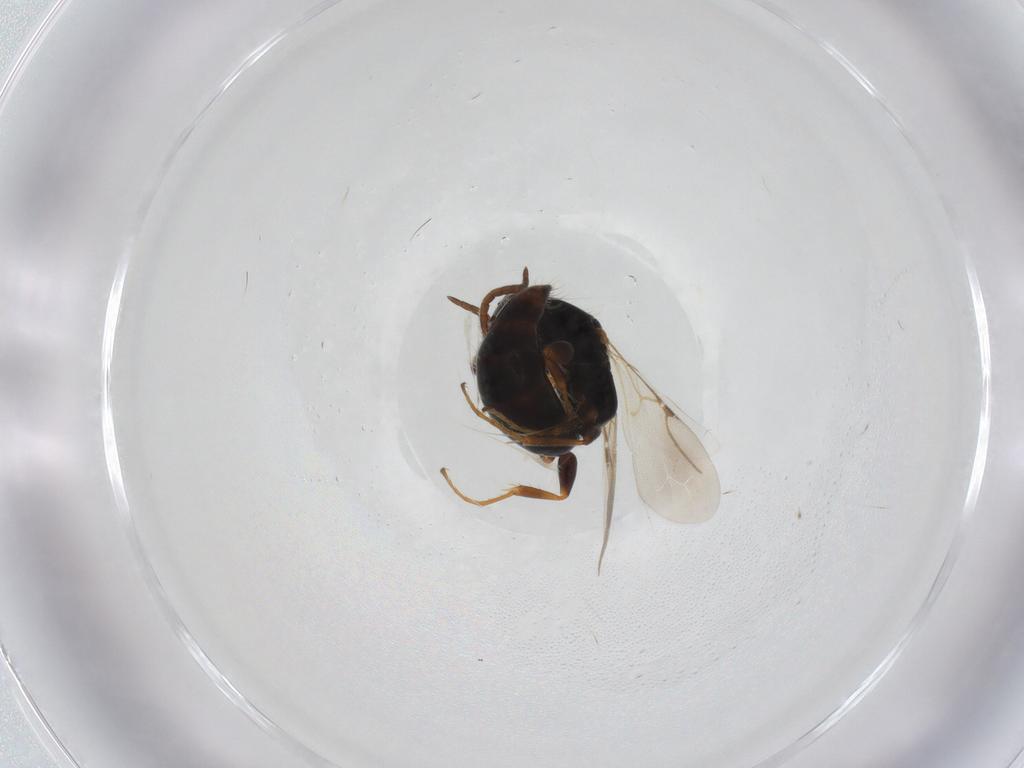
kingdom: Animalia
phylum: Arthropoda
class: Insecta
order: Hymenoptera
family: Bethylidae
